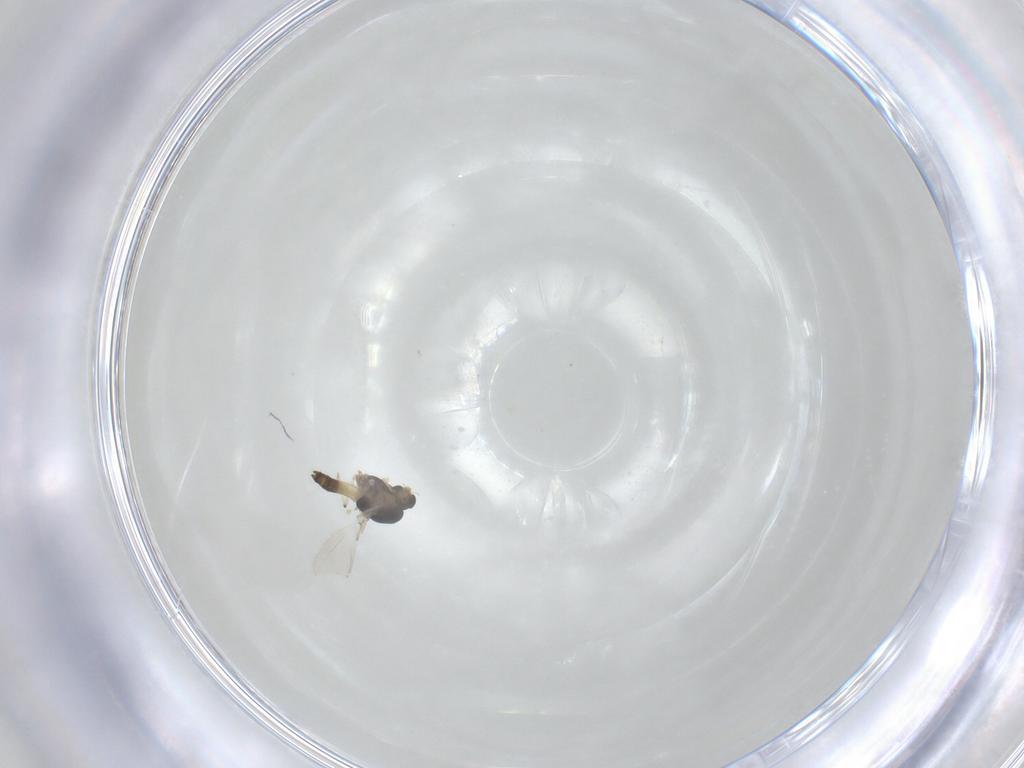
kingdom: Animalia
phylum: Arthropoda
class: Insecta
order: Diptera
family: Chironomidae
